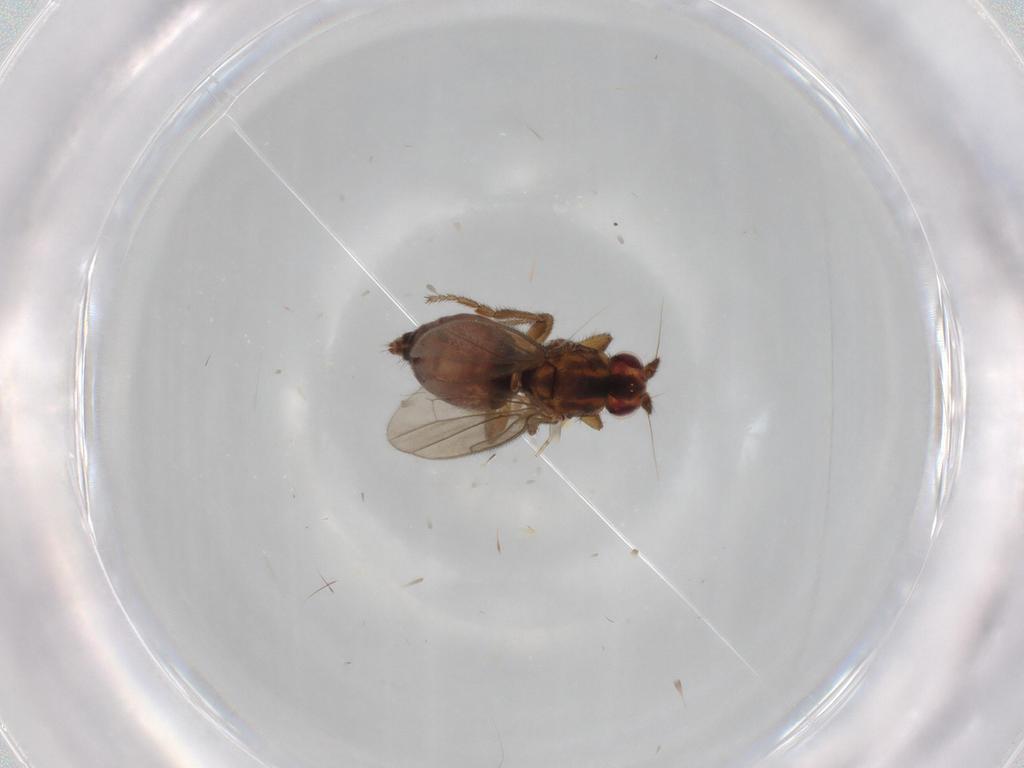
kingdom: Animalia
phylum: Arthropoda
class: Insecta
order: Diptera
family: Sphaeroceridae
